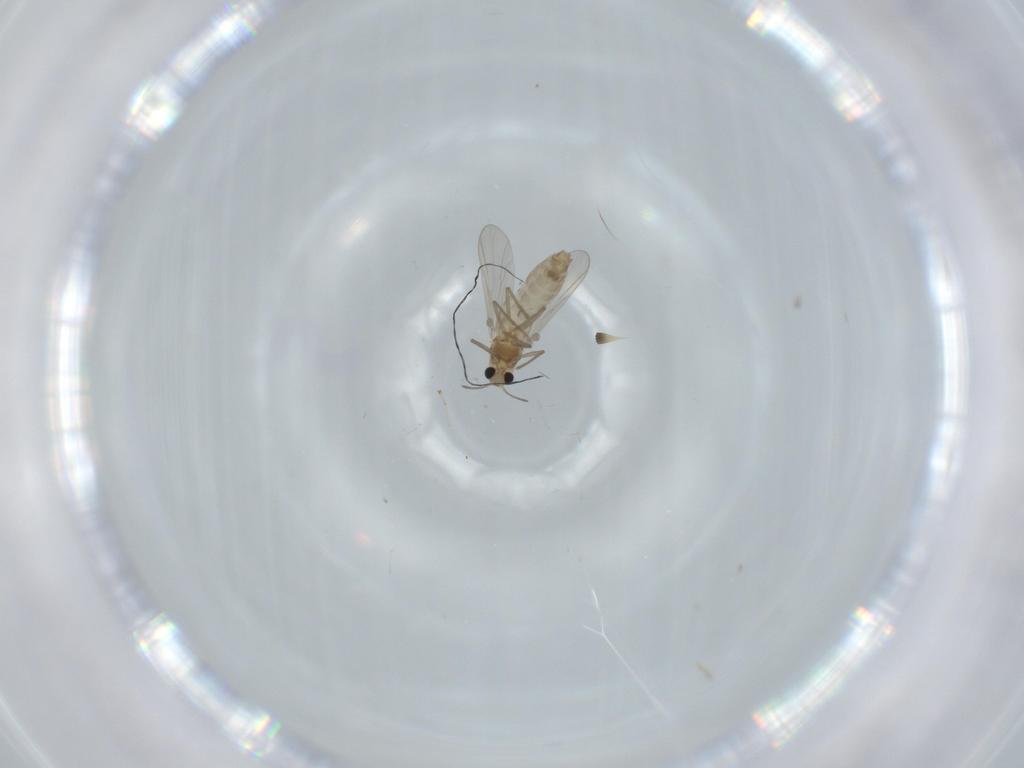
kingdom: Animalia
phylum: Arthropoda
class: Insecta
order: Diptera
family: Chironomidae
